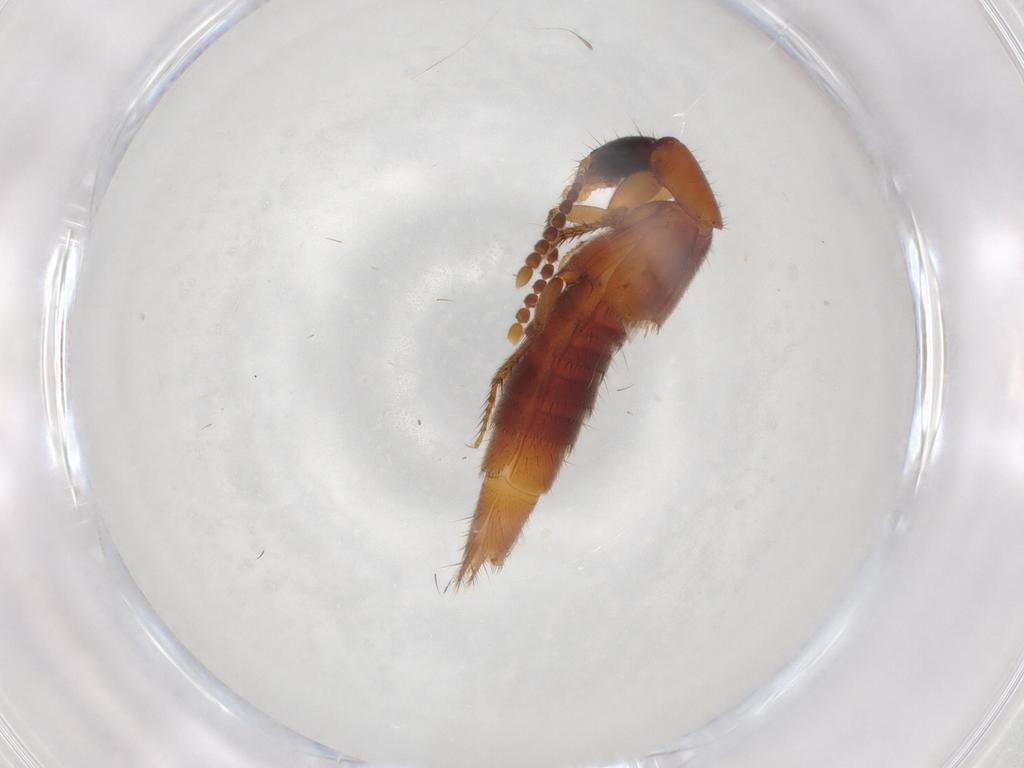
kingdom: Animalia
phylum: Arthropoda
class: Insecta
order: Coleoptera
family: Staphylinidae
